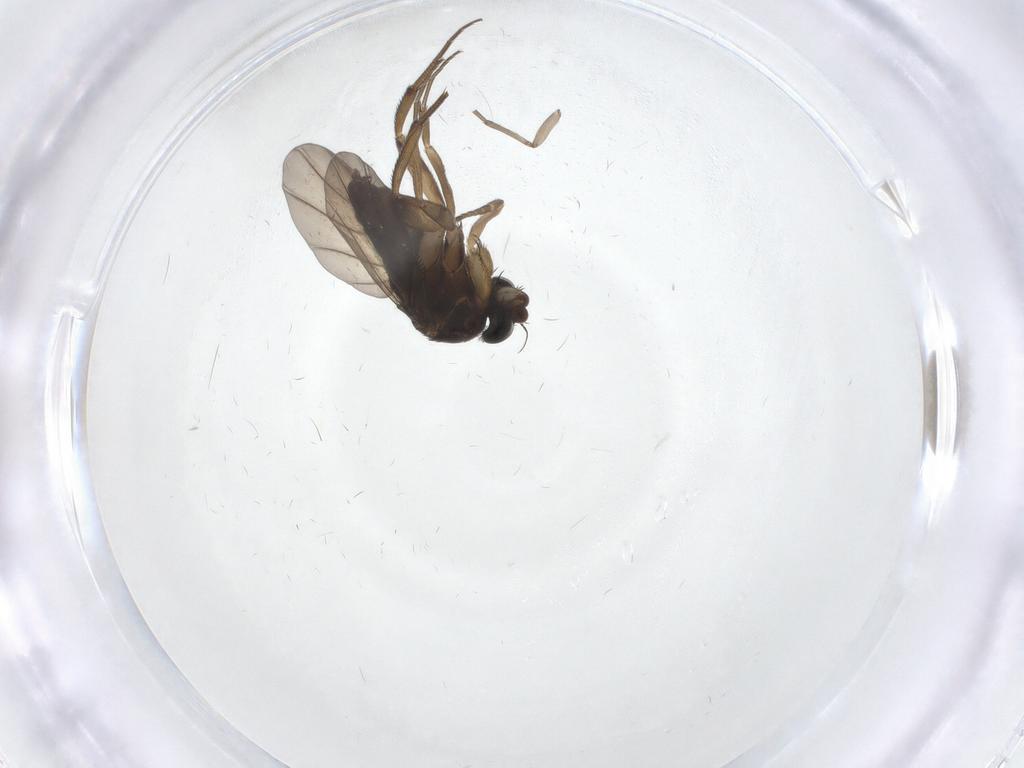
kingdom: Animalia
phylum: Arthropoda
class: Insecta
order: Diptera
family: Phoridae
